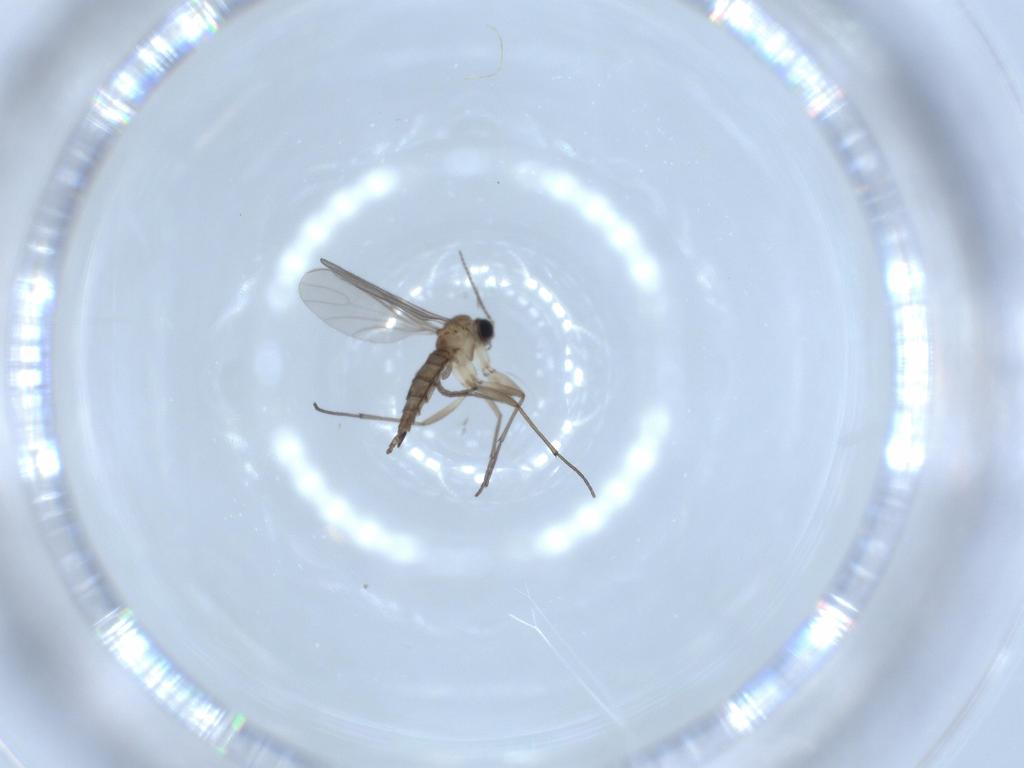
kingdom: Animalia
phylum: Arthropoda
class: Insecta
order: Diptera
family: Sciaridae
